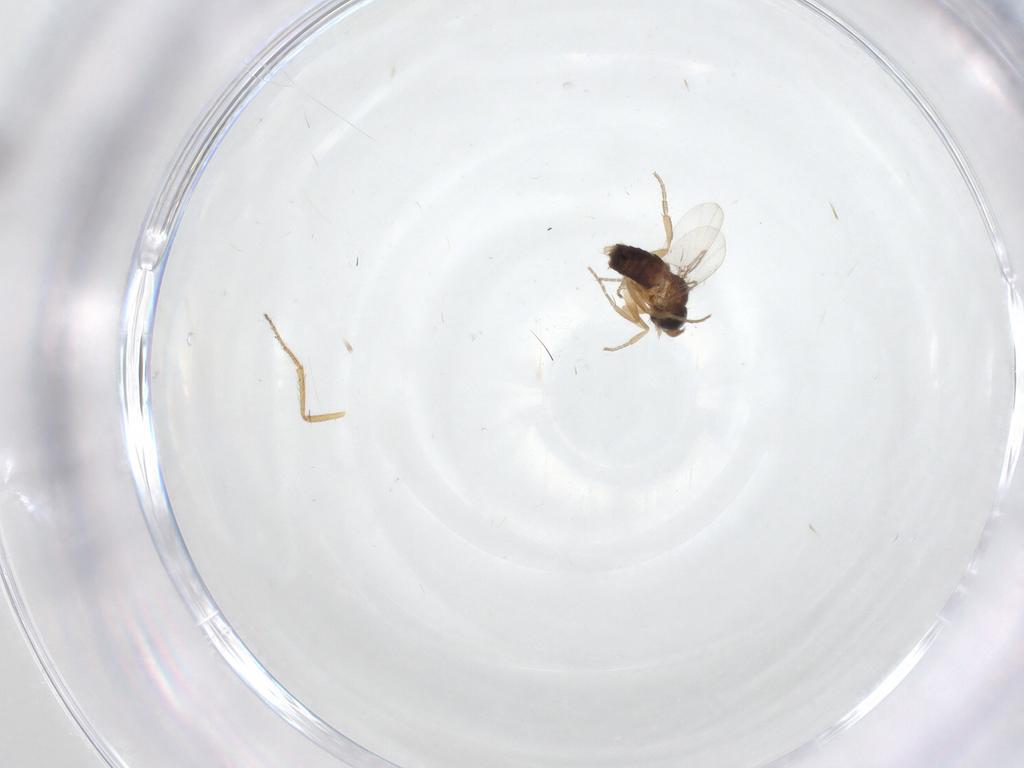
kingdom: Animalia
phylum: Arthropoda
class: Insecta
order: Diptera
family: Phoridae
